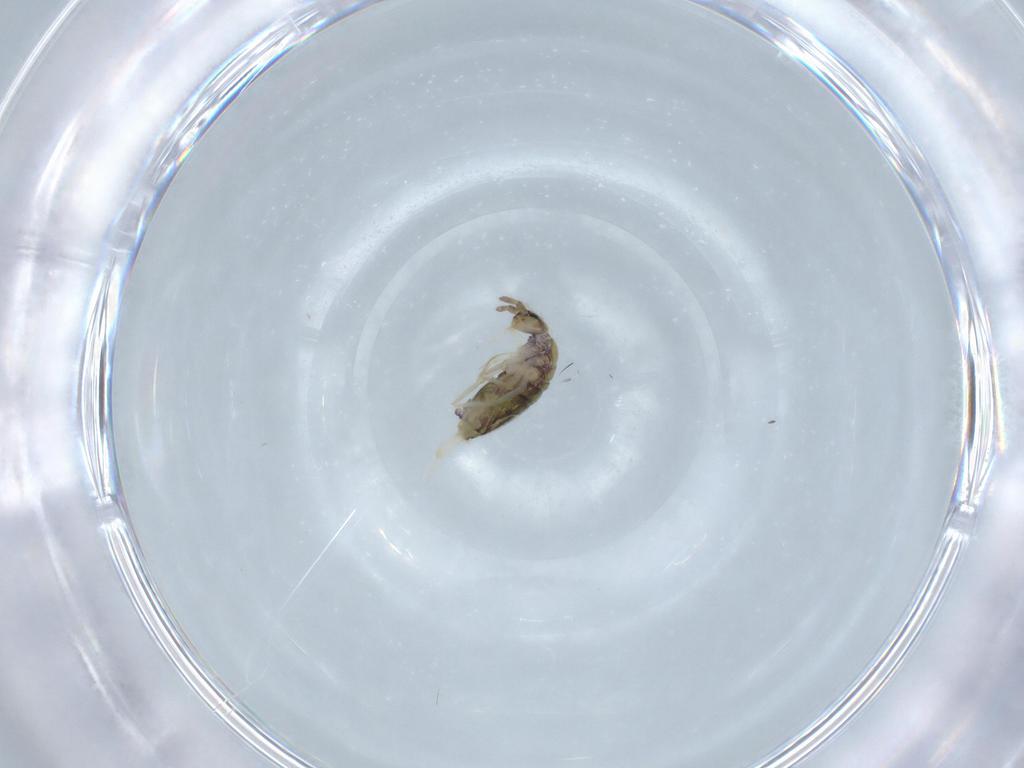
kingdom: Animalia
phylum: Arthropoda
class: Collembola
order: Entomobryomorpha
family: Entomobryidae
